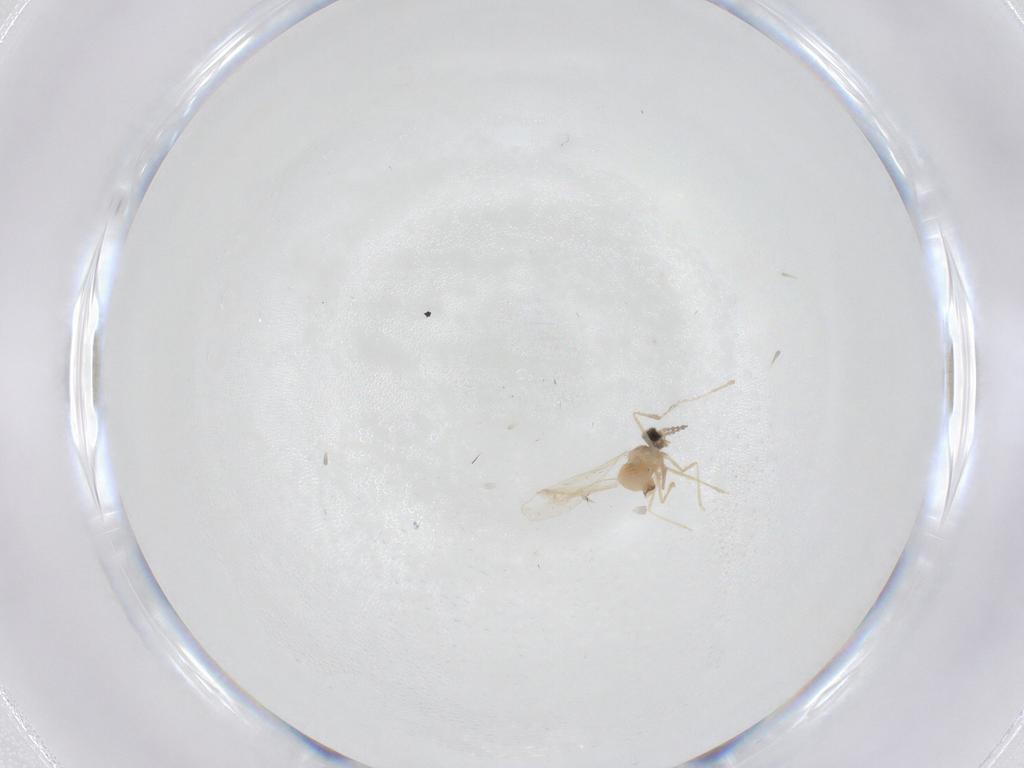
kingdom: Animalia
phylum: Arthropoda
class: Insecta
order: Diptera
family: Cecidomyiidae
